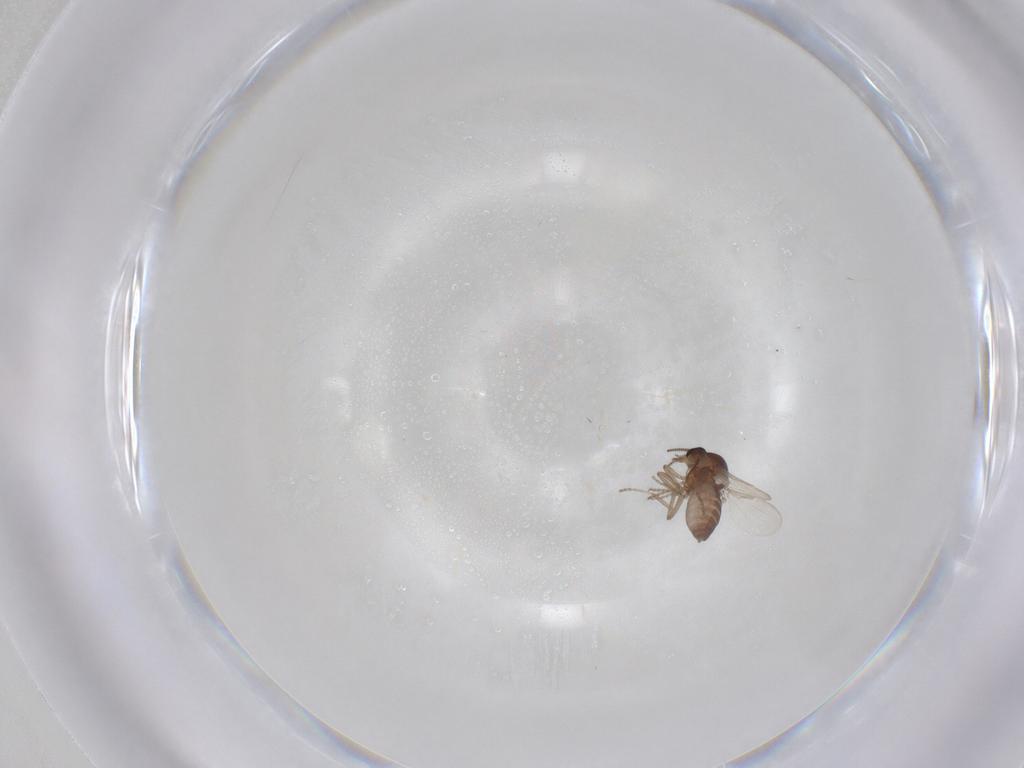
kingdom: Animalia
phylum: Arthropoda
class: Insecta
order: Diptera
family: Ceratopogonidae
